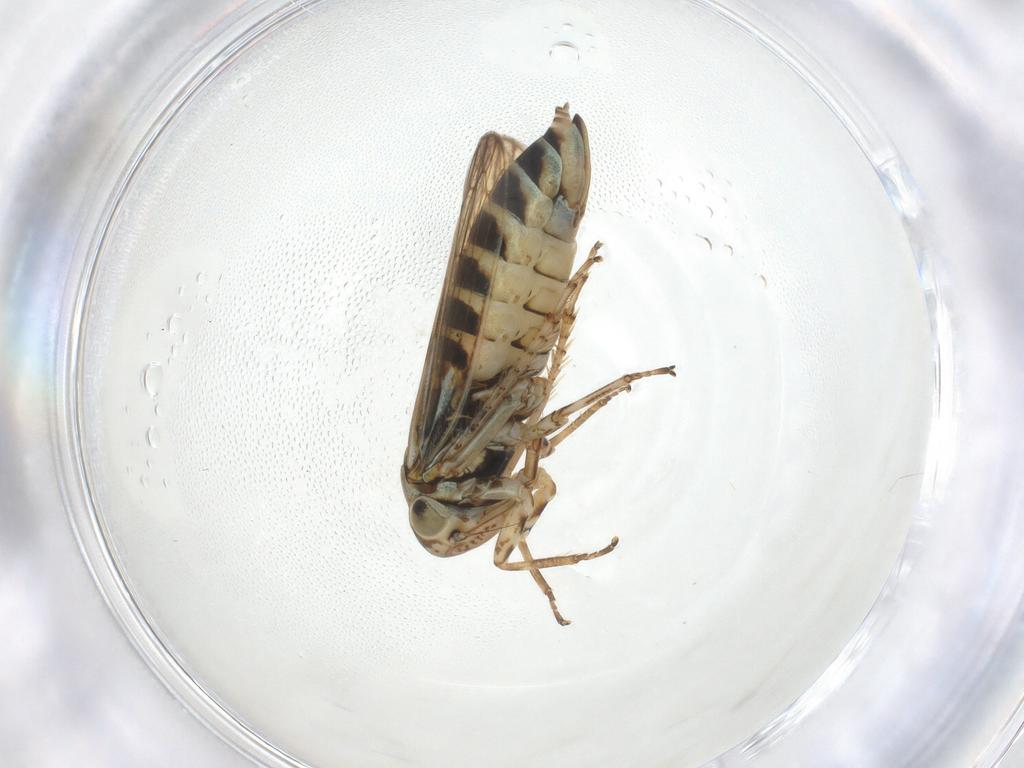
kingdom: Animalia
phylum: Arthropoda
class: Insecta
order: Hemiptera
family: Cicadellidae
